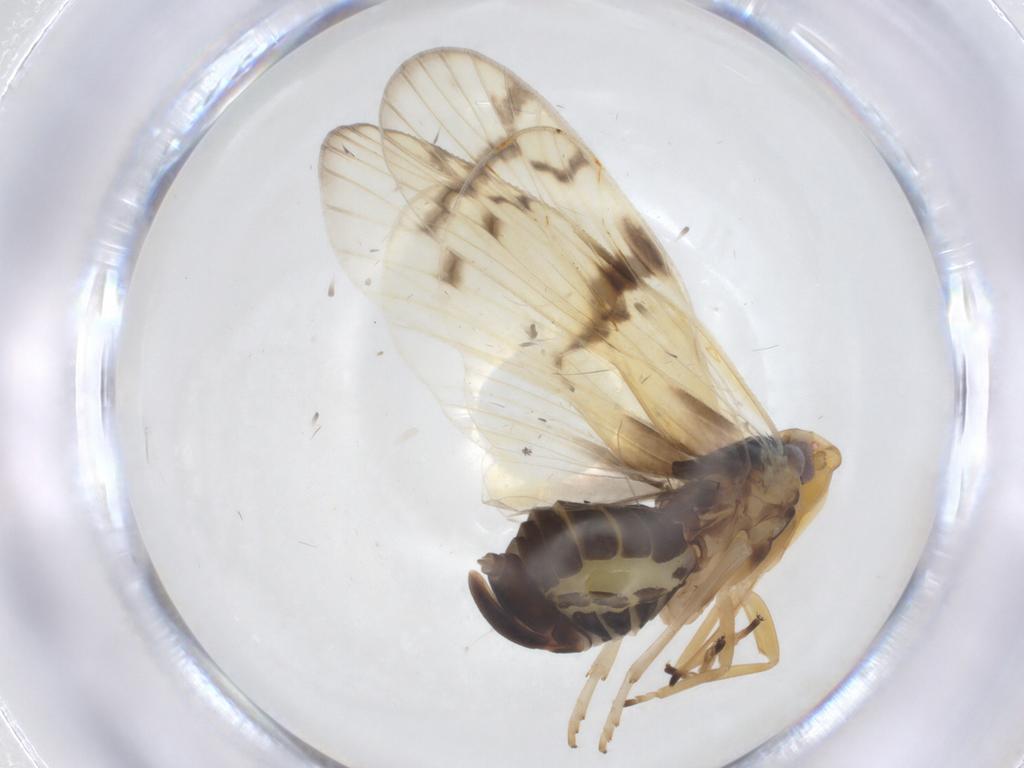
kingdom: Animalia
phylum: Arthropoda
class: Insecta
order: Hemiptera
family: Cixiidae
